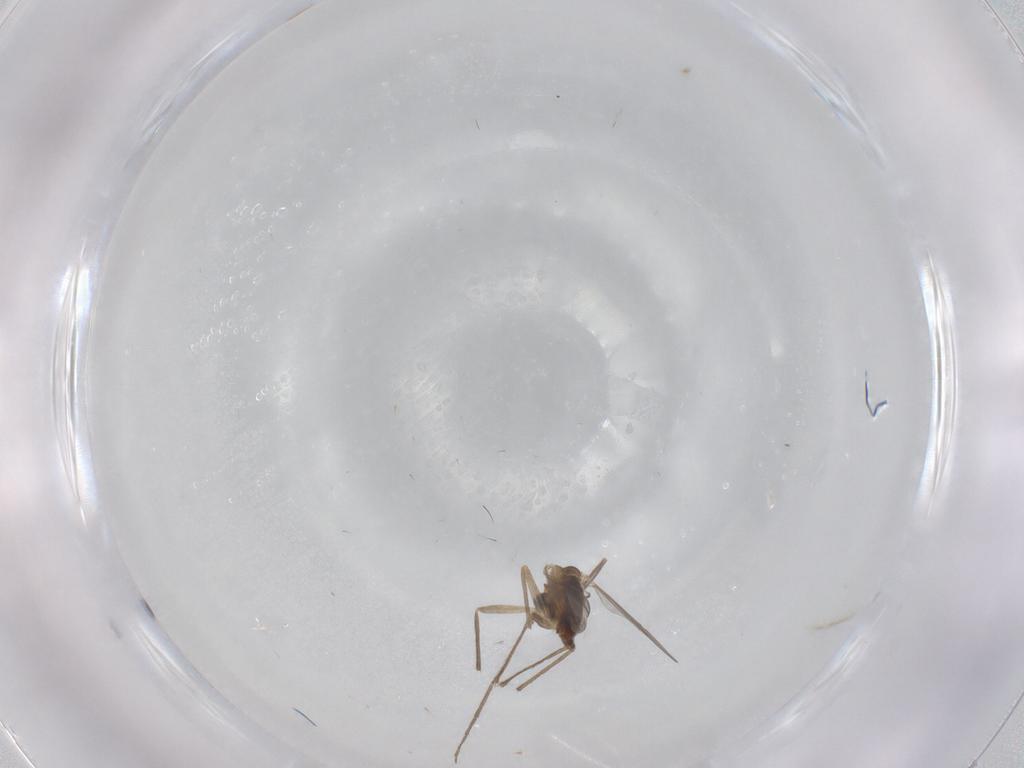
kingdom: Animalia
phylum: Arthropoda
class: Insecta
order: Diptera
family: Chironomidae
